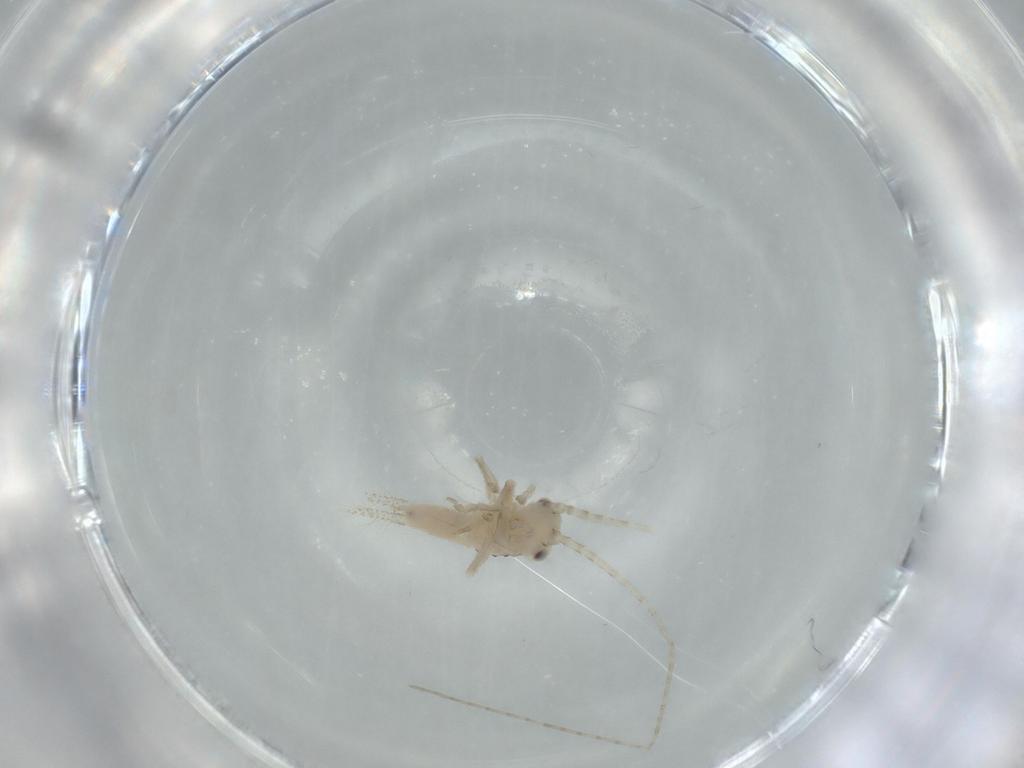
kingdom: Animalia
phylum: Arthropoda
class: Insecta
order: Orthoptera
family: Trigonidiidae
